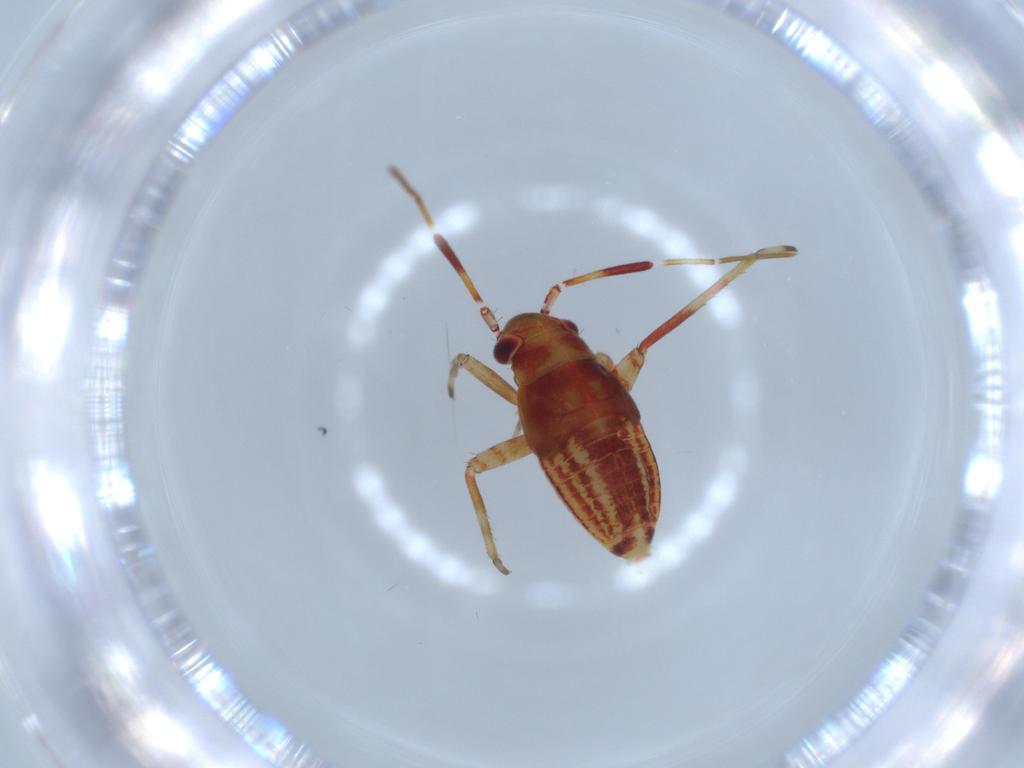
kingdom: Animalia
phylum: Arthropoda
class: Insecta
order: Hemiptera
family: Miridae
